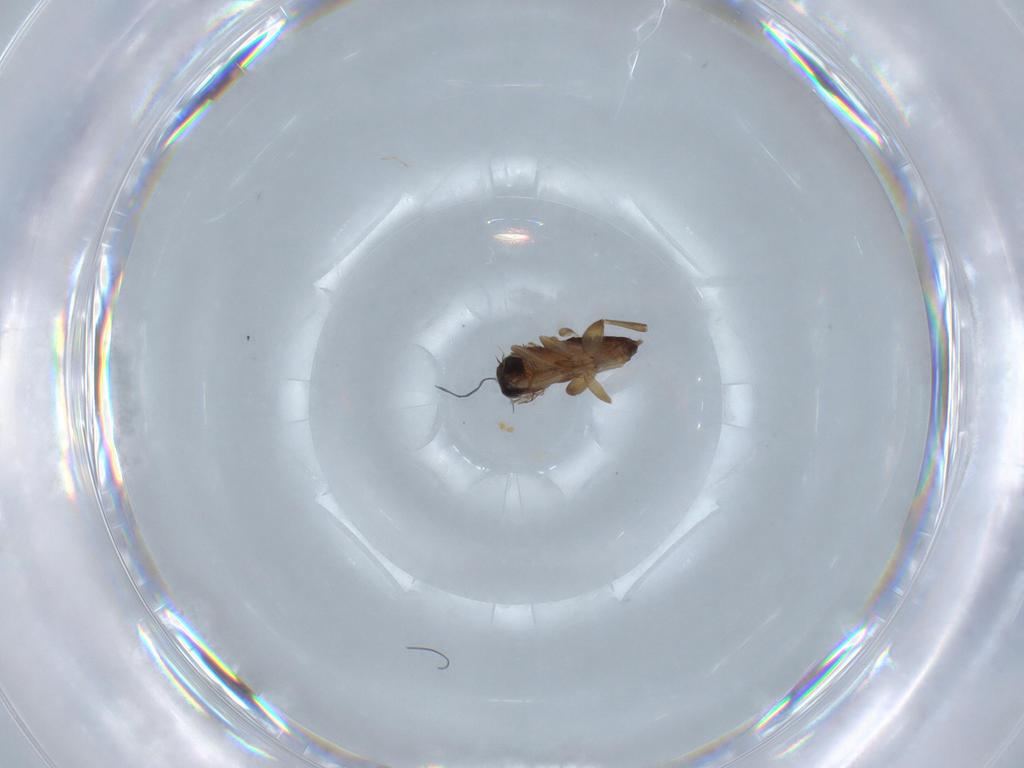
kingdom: Animalia
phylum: Arthropoda
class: Insecta
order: Diptera
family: Phoridae
